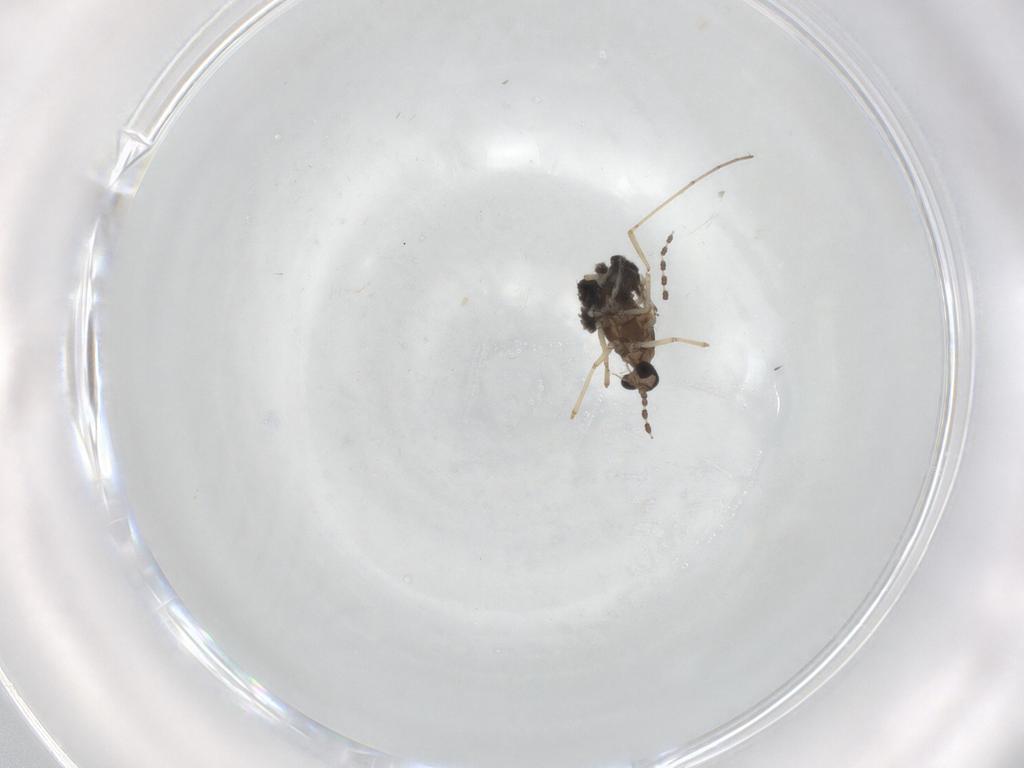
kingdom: Animalia
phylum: Arthropoda
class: Insecta
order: Diptera
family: Cecidomyiidae
